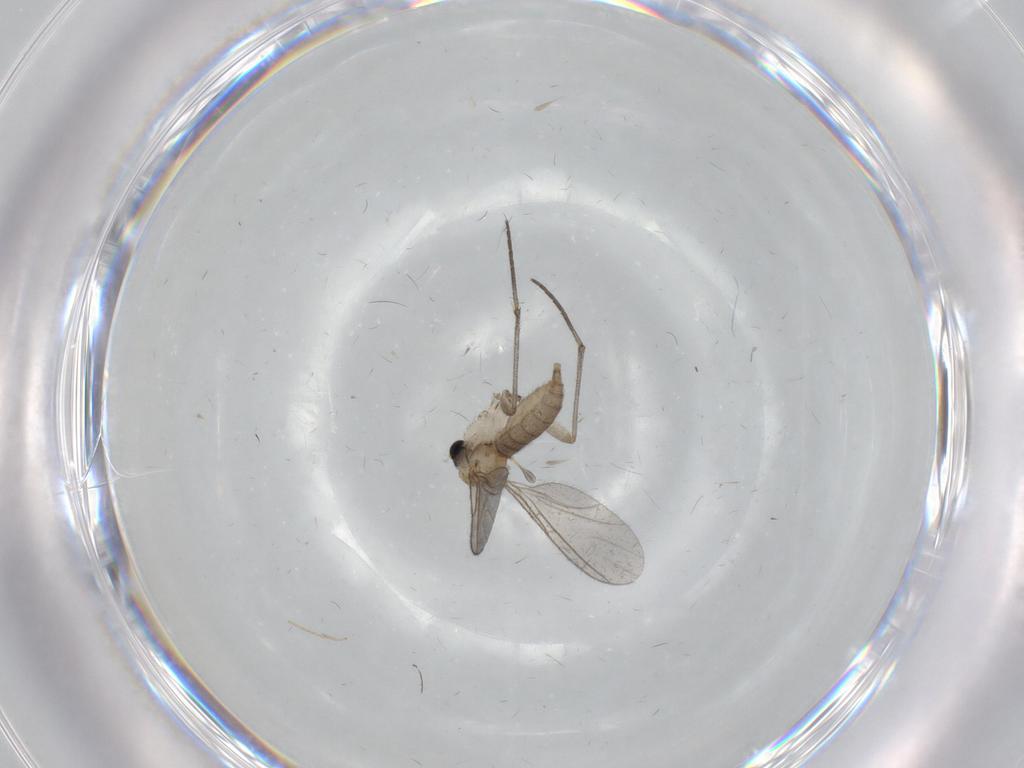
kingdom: Animalia
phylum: Arthropoda
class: Insecta
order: Diptera
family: Sciaridae
